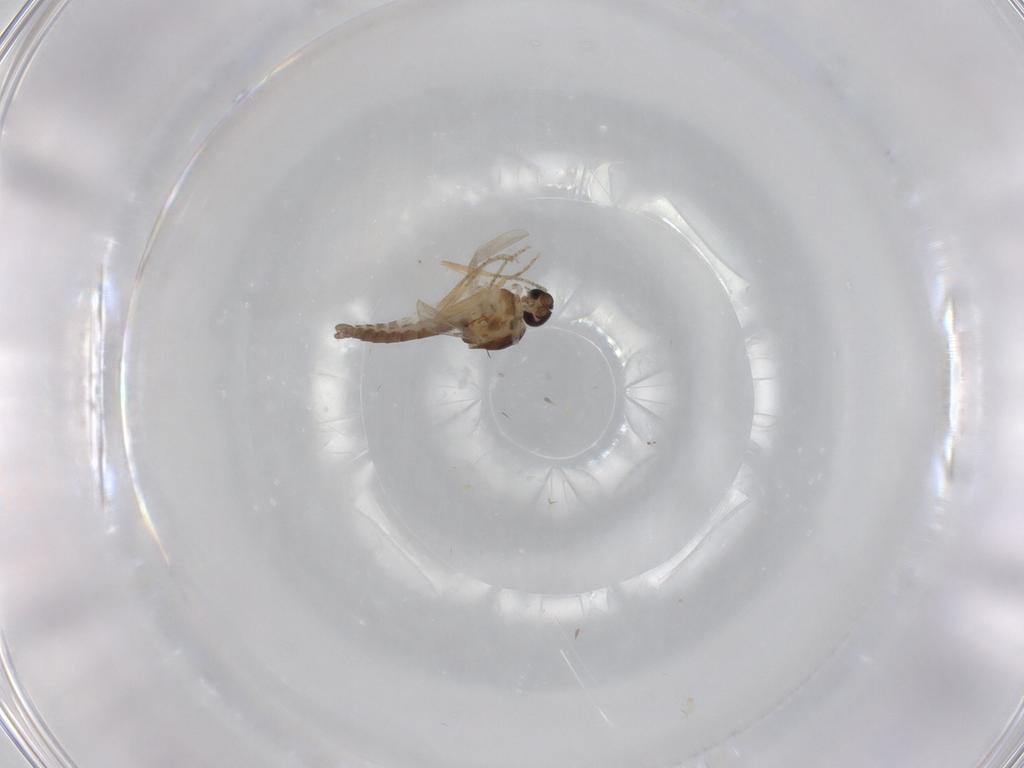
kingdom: Animalia
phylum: Arthropoda
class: Insecta
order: Diptera
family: Ceratopogonidae
